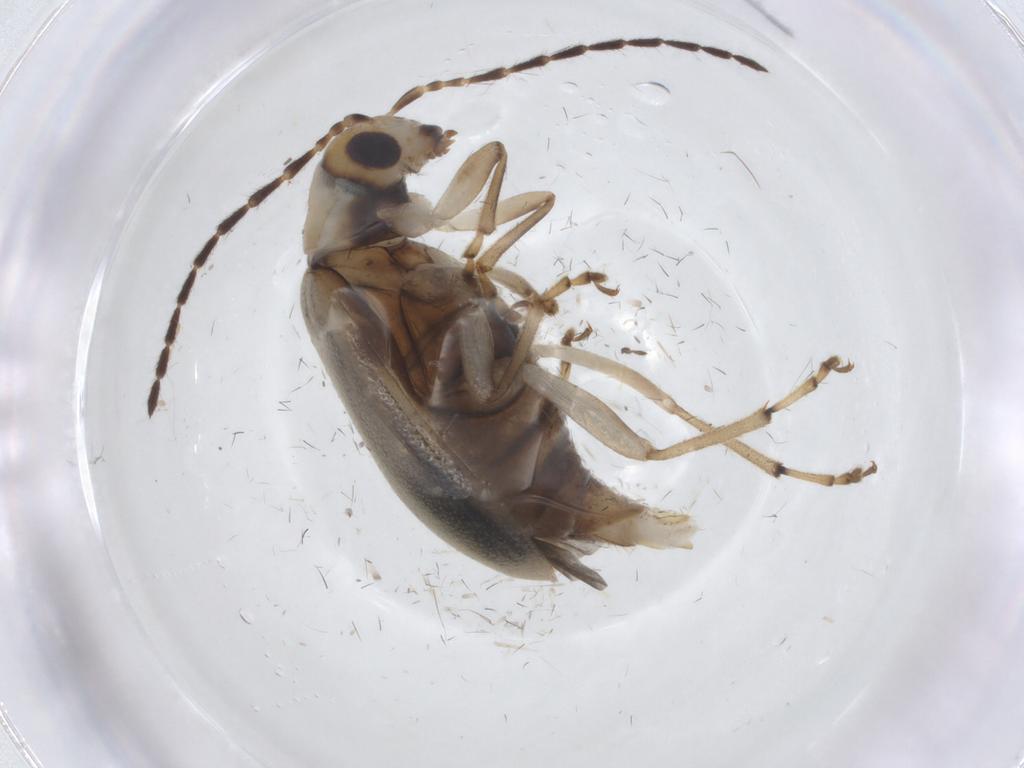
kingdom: Animalia
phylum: Arthropoda
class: Insecta
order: Coleoptera
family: Chrysomelidae
